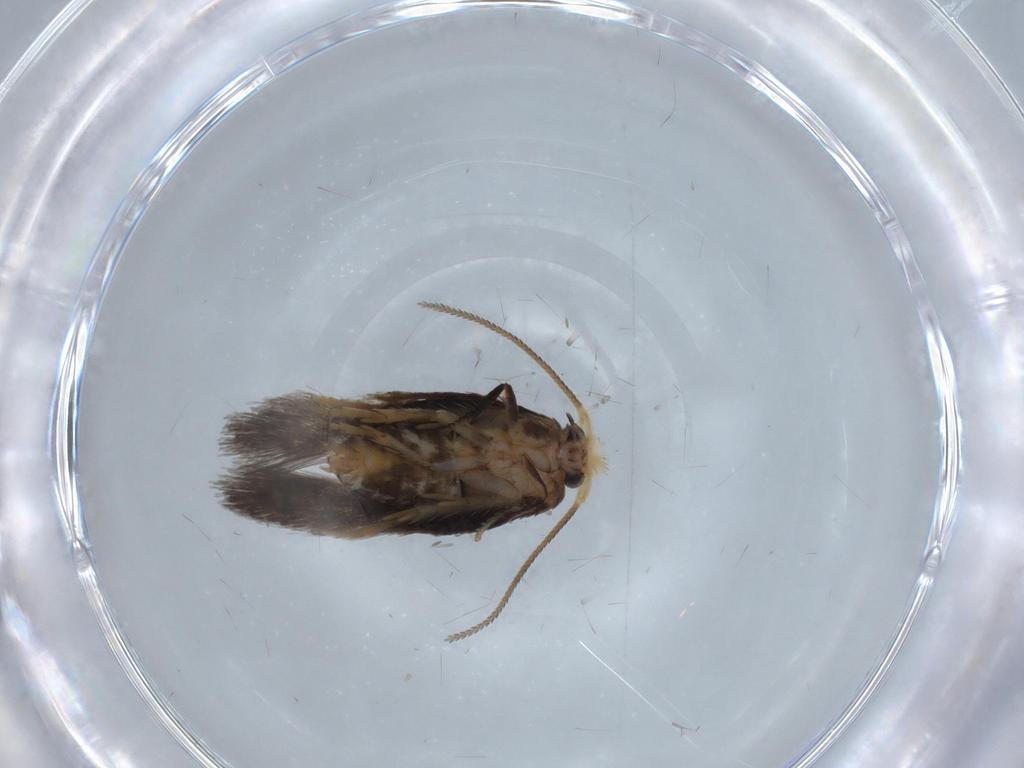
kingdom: Animalia
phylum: Arthropoda
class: Insecta
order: Lepidoptera
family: Nepticulidae
